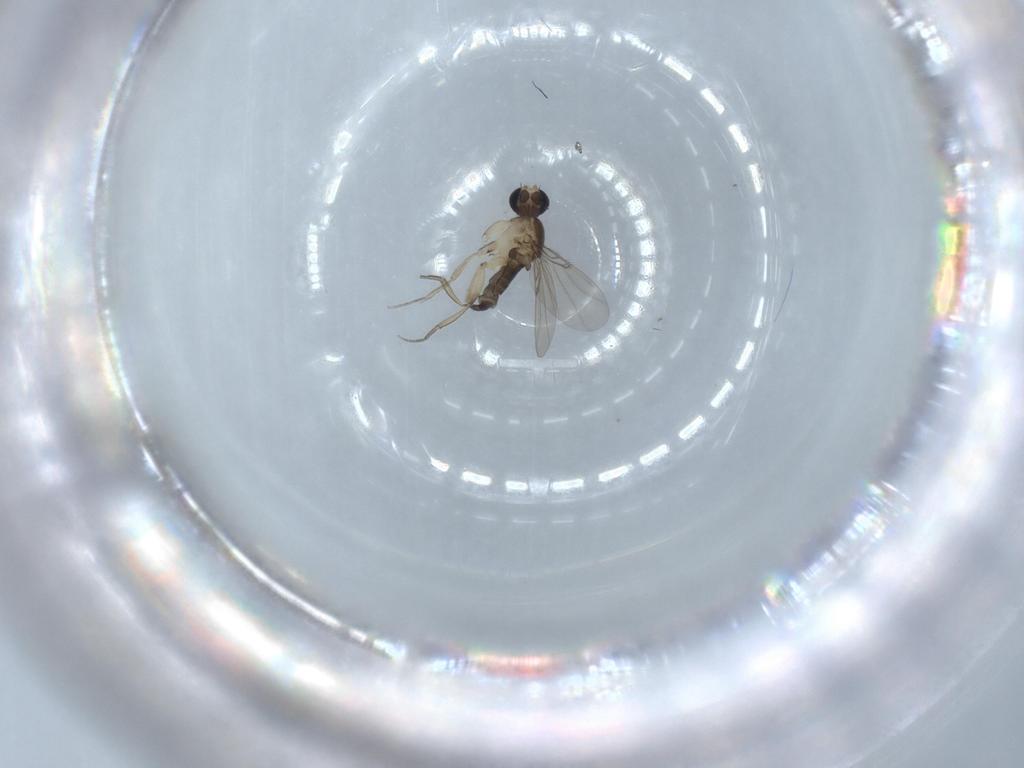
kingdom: Animalia
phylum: Arthropoda
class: Insecta
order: Diptera
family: Phoridae
